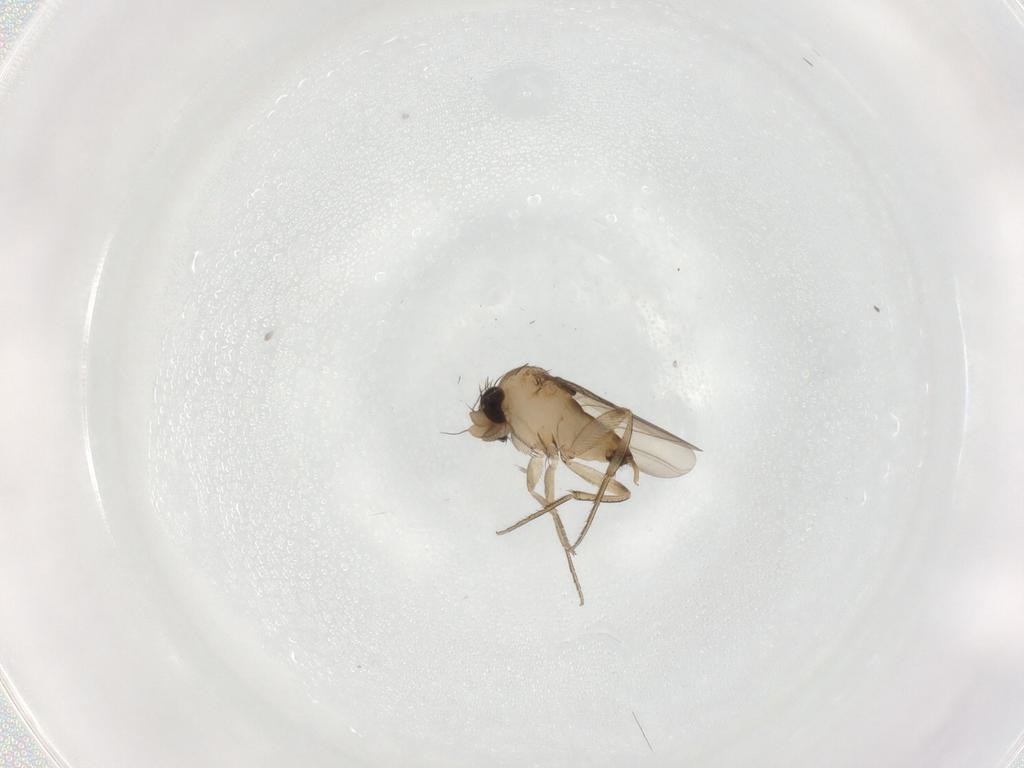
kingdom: Animalia
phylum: Arthropoda
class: Insecta
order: Diptera
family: Phoridae
